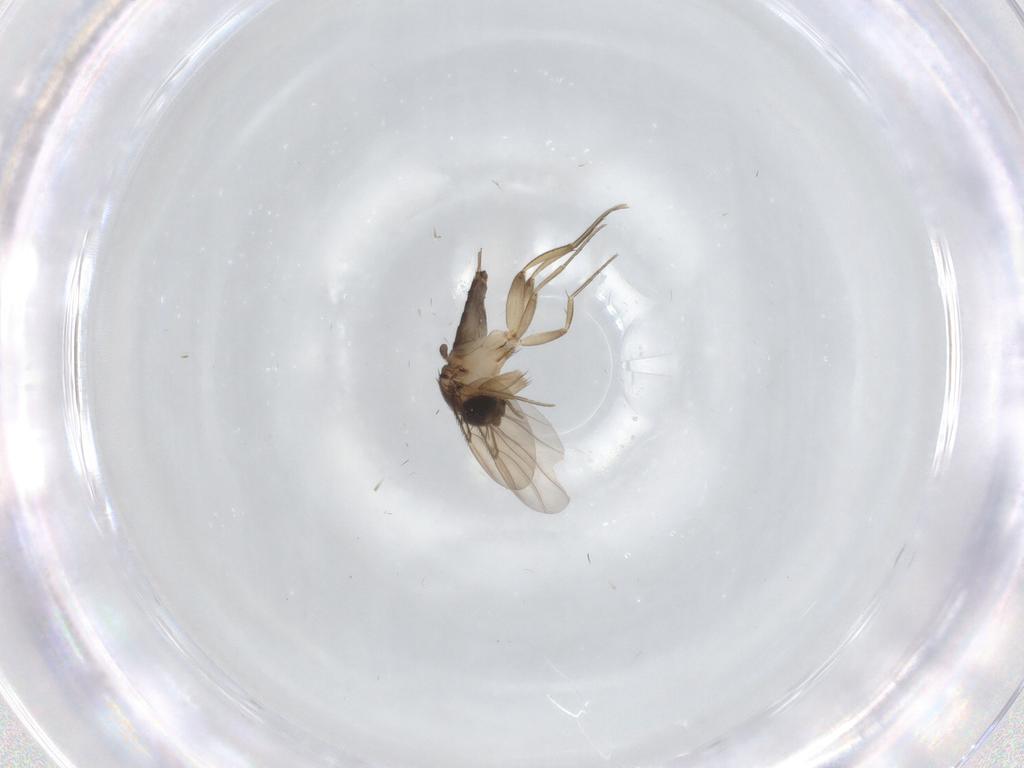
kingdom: Animalia
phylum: Arthropoda
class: Insecta
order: Diptera
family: Phoridae
